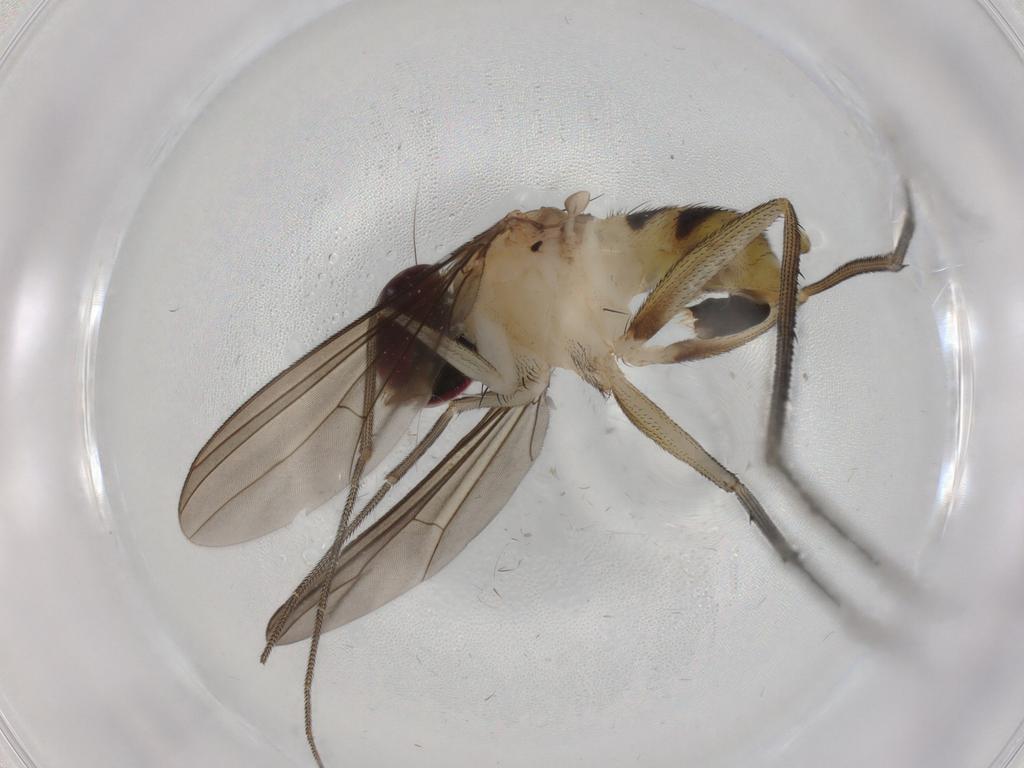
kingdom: Animalia
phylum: Arthropoda
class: Insecta
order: Diptera
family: Dolichopodidae
